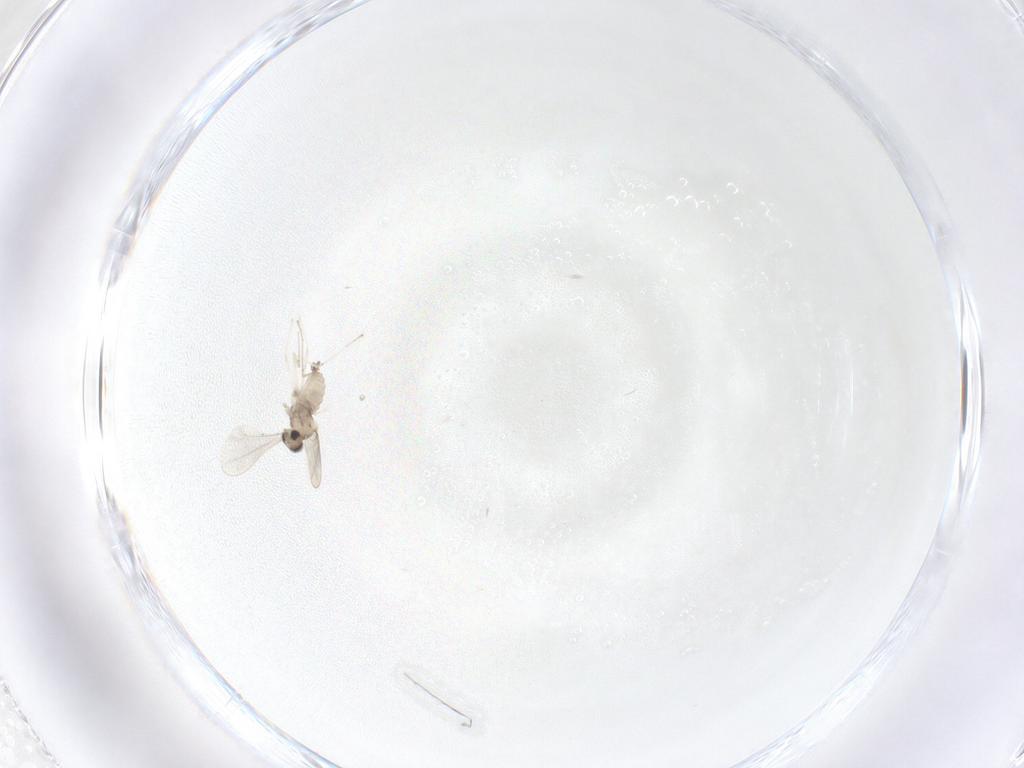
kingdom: Animalia
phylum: Arthropoda
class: Insecta
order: Diptera
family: Cecidomyiidae
